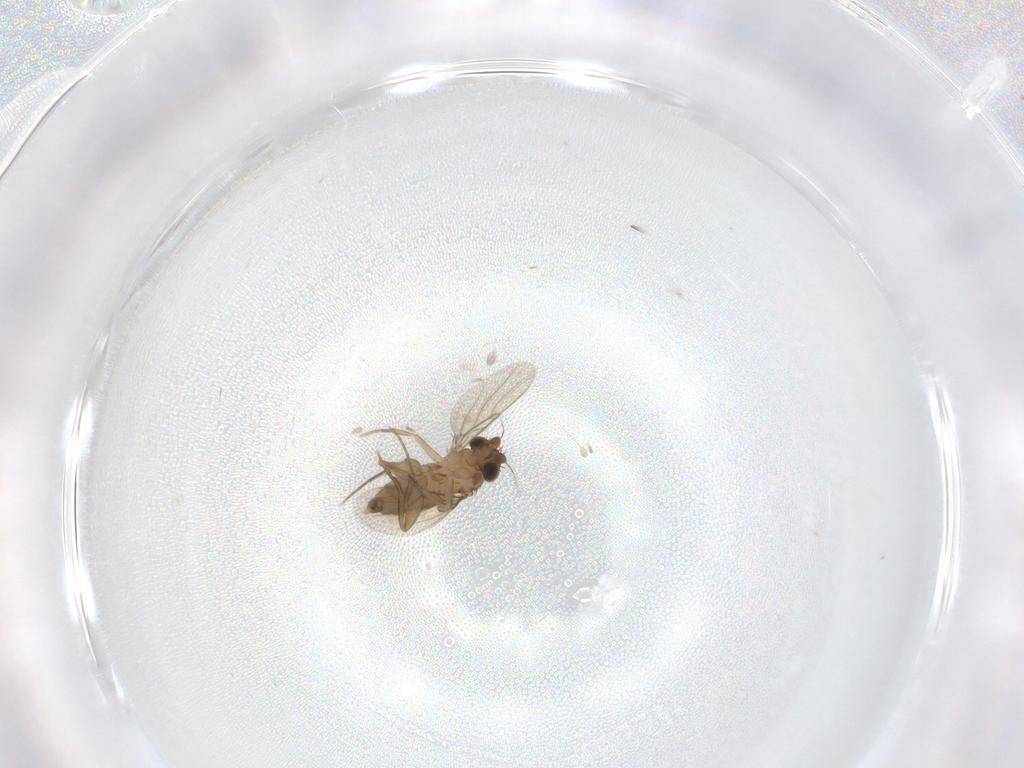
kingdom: Animalia
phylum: Arthropoda
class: Insecta
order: Diptera
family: Phoridae
